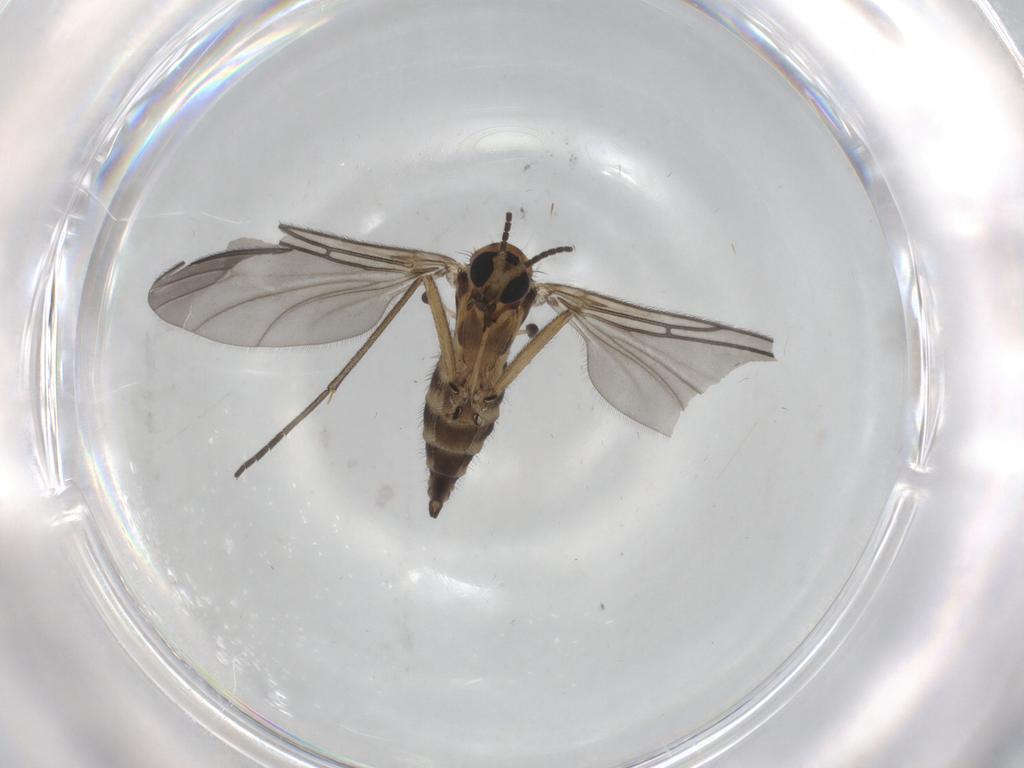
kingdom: Animalia
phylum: Arthropoda
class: Insecta
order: Diptera
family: Sciaridae
